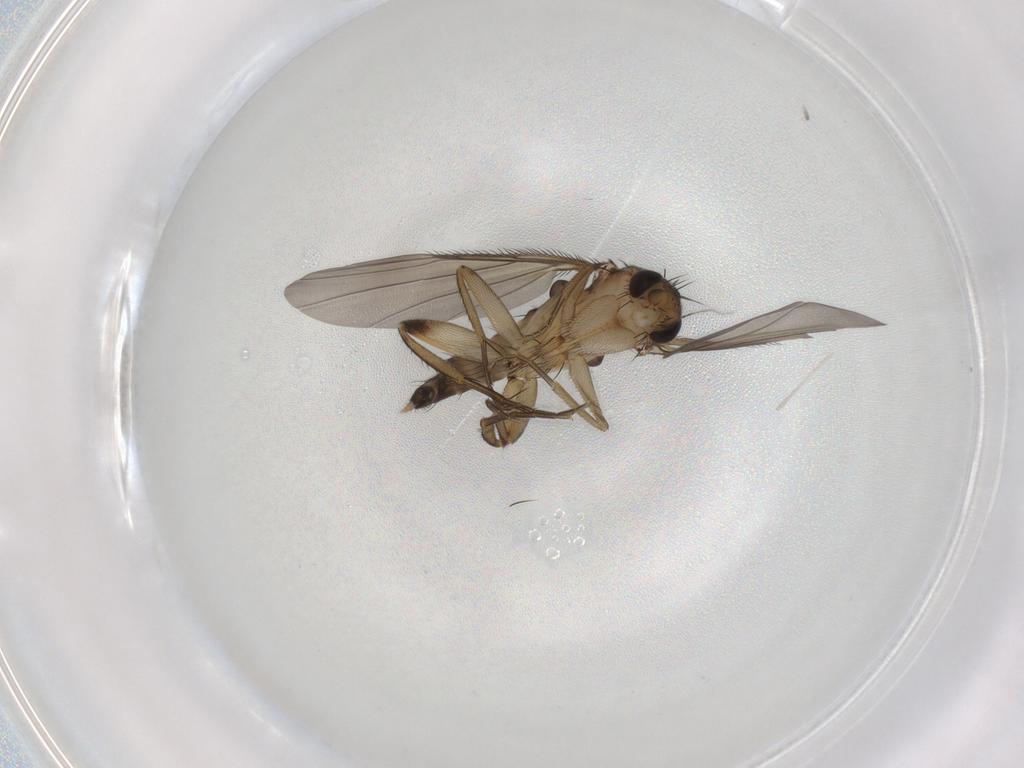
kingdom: Animalia
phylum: Arthropoda
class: Insecta
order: Diptera
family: Phoridae
